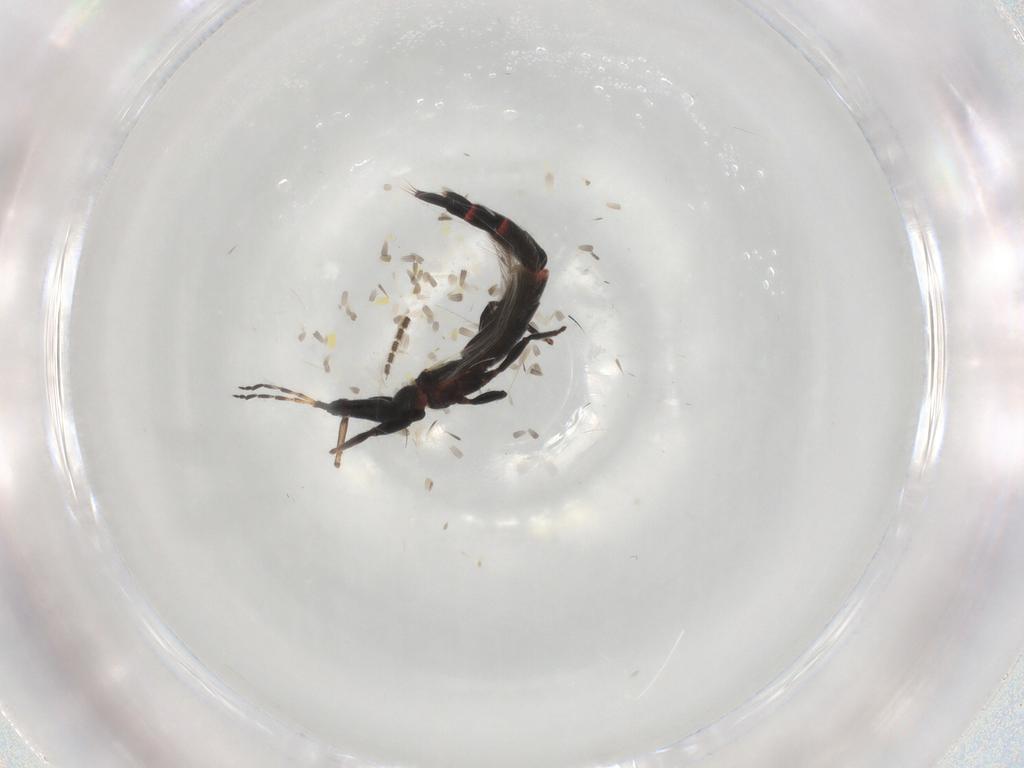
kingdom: Animalia
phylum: Arthropoda
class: Insecta
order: Thysanoptera
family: Phlaeothripidae
